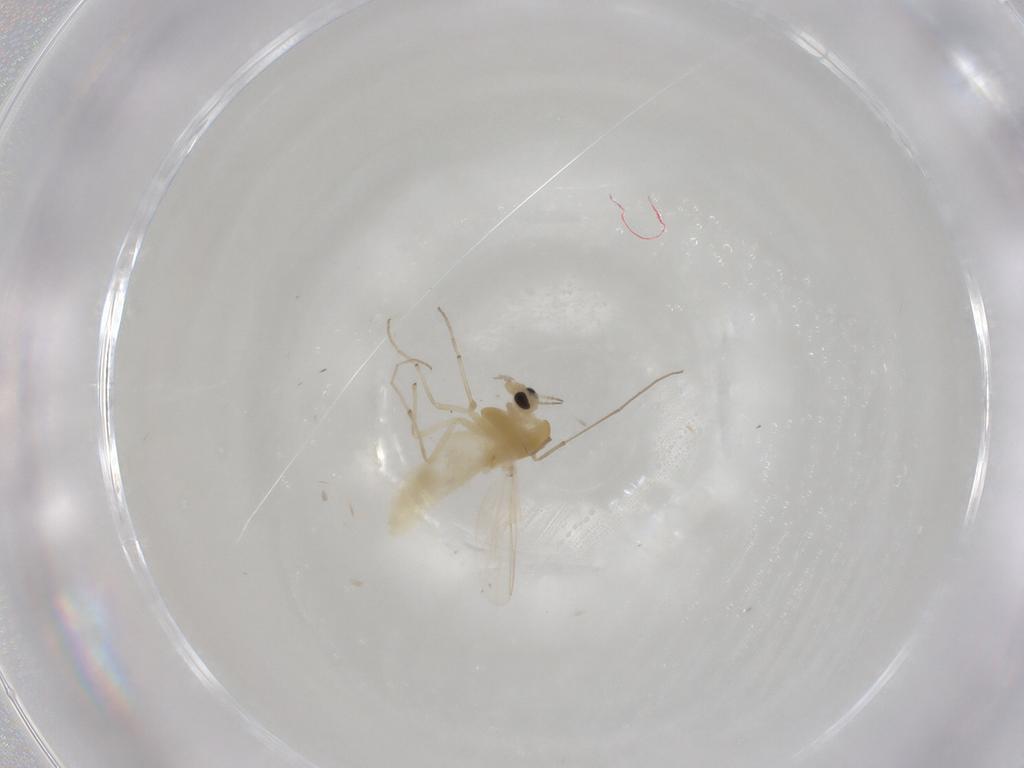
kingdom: Animalia
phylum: Arthropoda
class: Insecta
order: Diptera
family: Chironomidae
